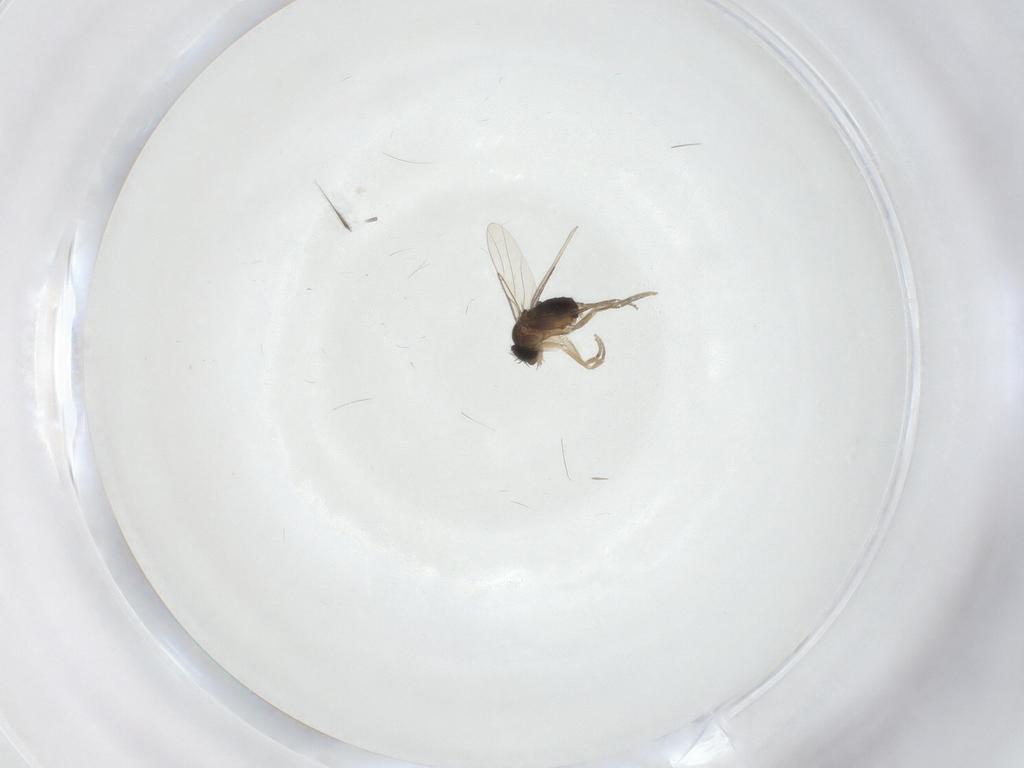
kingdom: Animalia
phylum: Arthropoda
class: Insecta
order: Diptera
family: Phoridae
